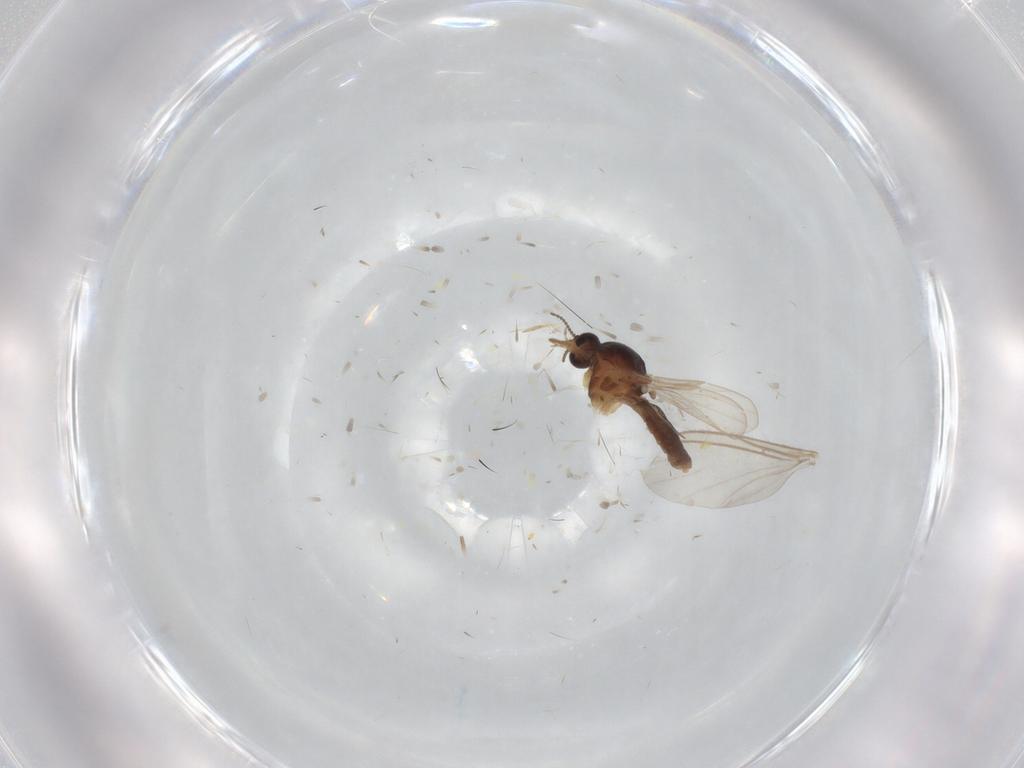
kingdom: Animalia
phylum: Arthropoda
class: Insecta
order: Diptera
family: Ceratopogonidae
